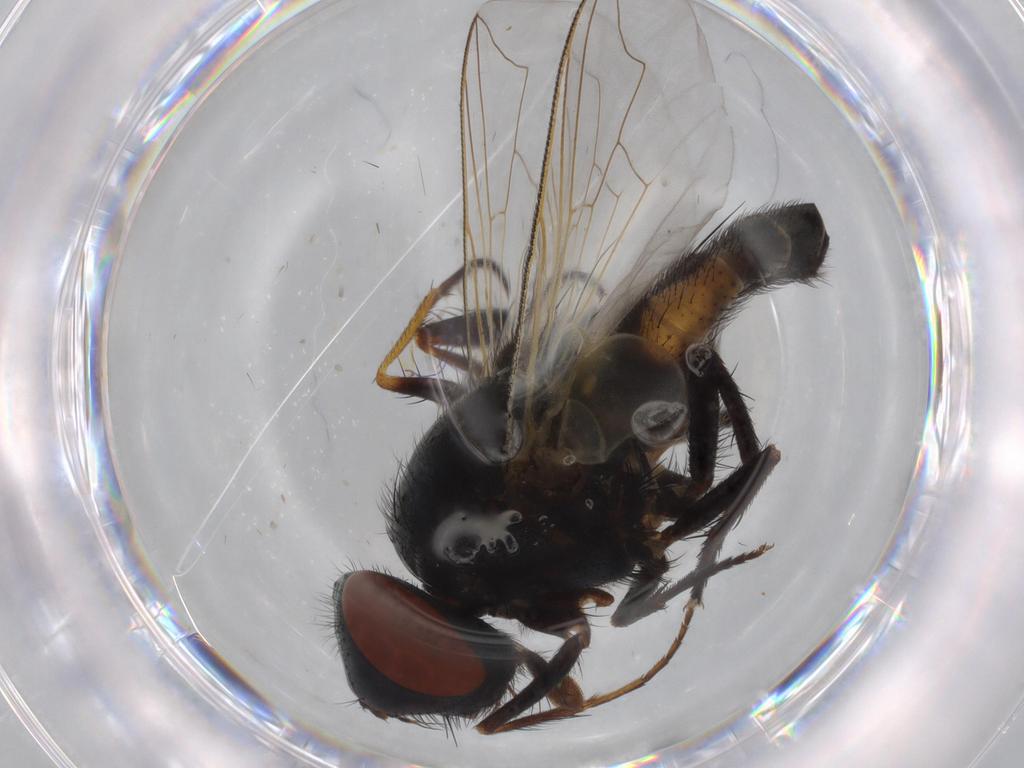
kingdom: Animalia
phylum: Arthropoda
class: Insecta
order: Diptera
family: Sarcophagidae
